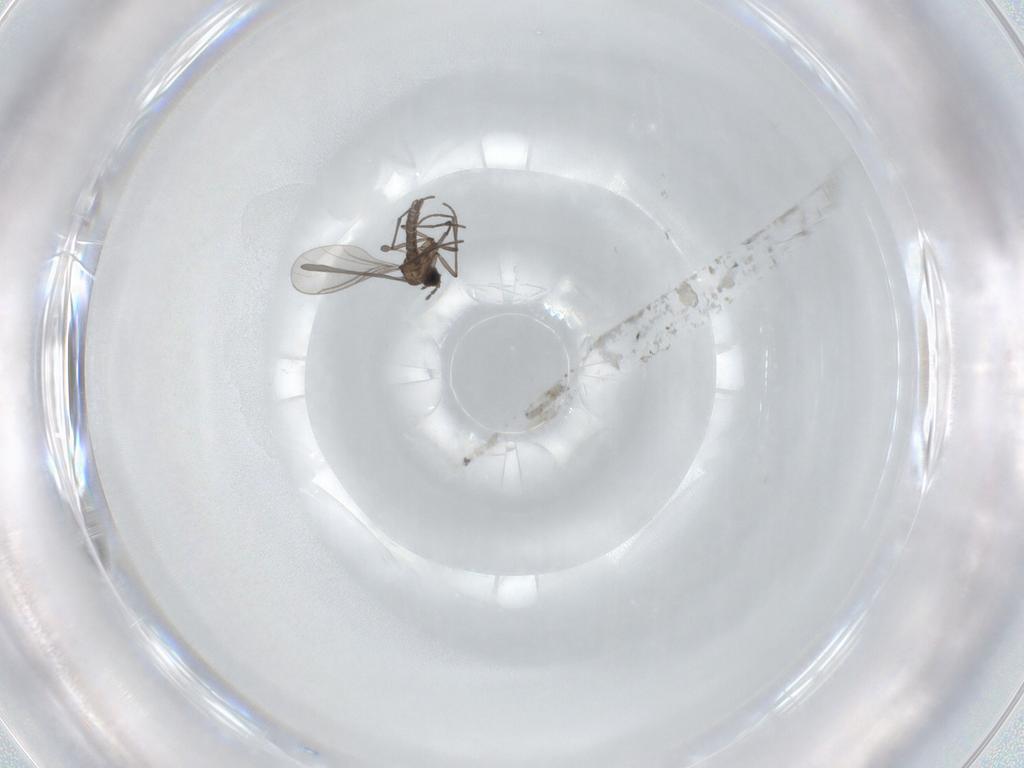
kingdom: Animalia
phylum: Arthropoda
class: Insecta
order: Diptera
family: Sciaridae
